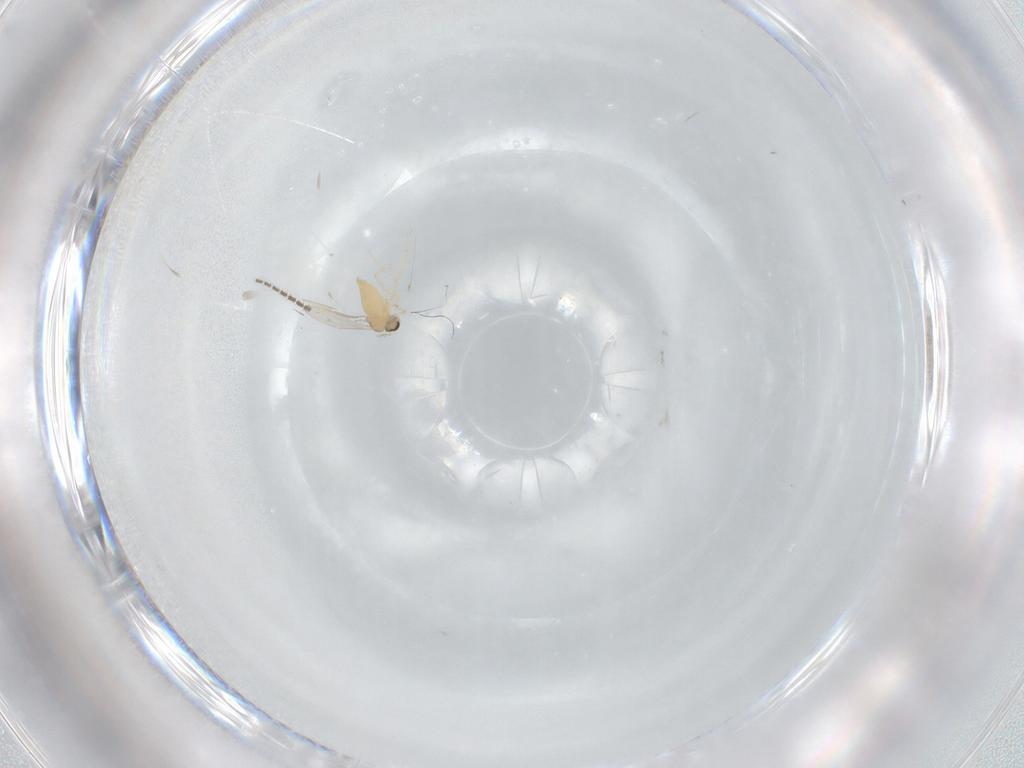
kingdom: Animalia
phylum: Arthropoda
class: Insecta
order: Diptera
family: Sciaridae
